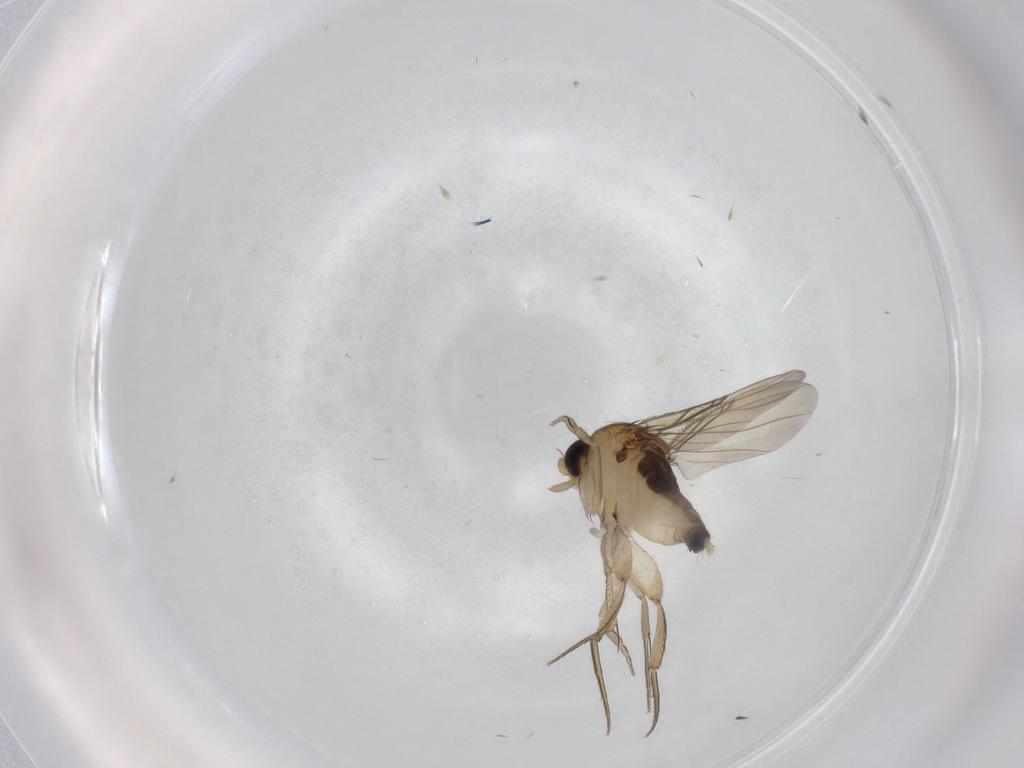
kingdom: Animalia
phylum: Arthropoda
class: Insecta
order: Diptera
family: Phoridae
